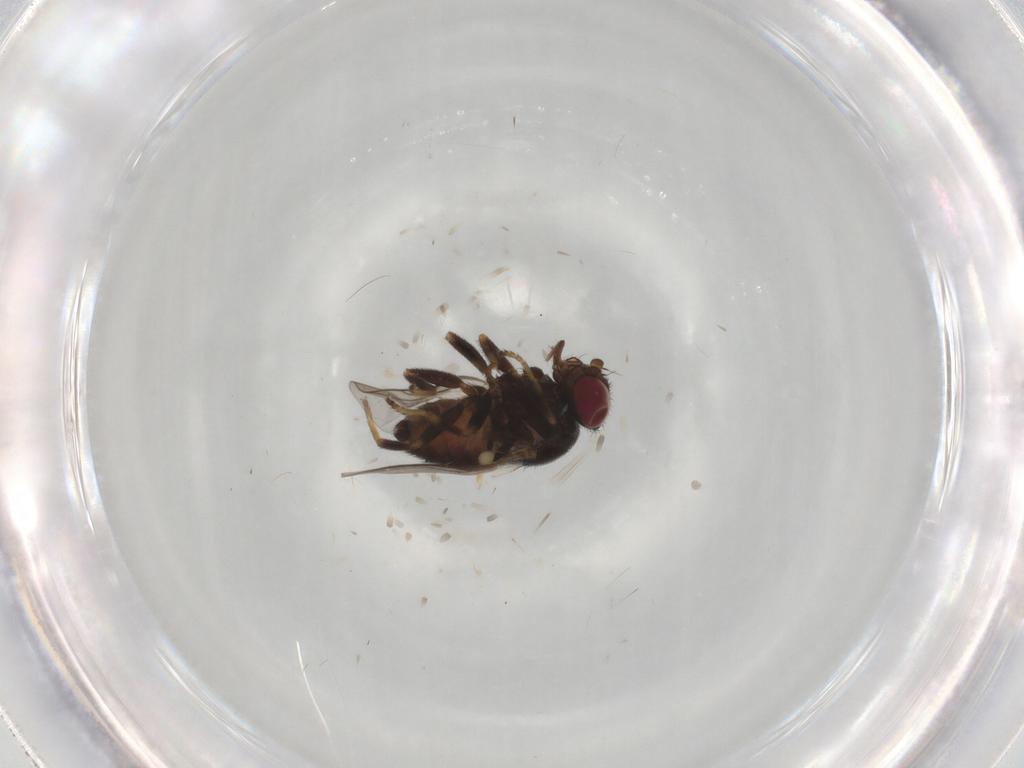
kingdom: Animalia
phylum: Arthropoda
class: Insecta
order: Diptera
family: Chloropidae
